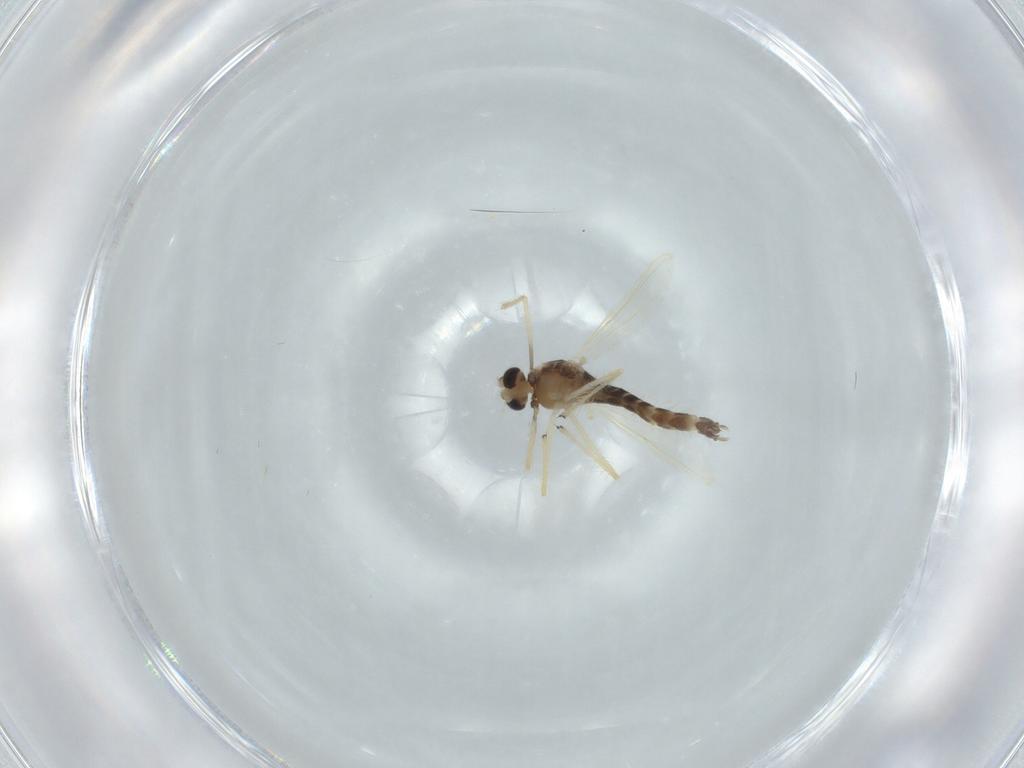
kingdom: Animalia
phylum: Arthropoda
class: Insecta
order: Diptera
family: Chironomidae
